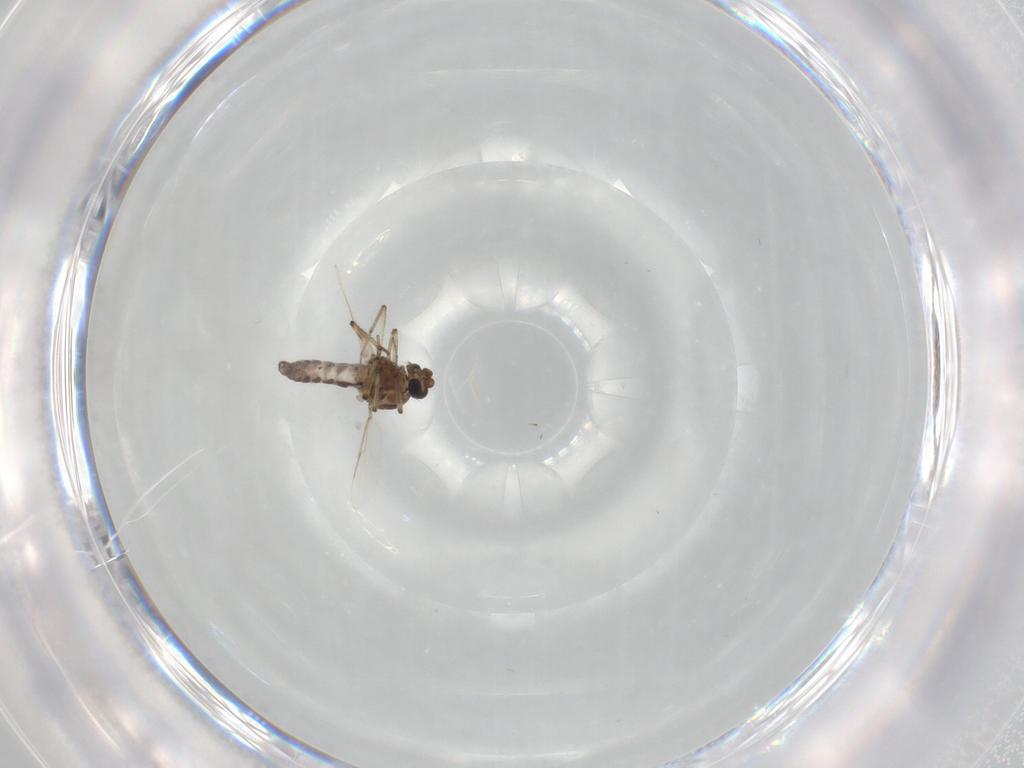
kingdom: Animalia
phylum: Arthropoda
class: Insecta
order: Diptera
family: Ceratopogonidae
